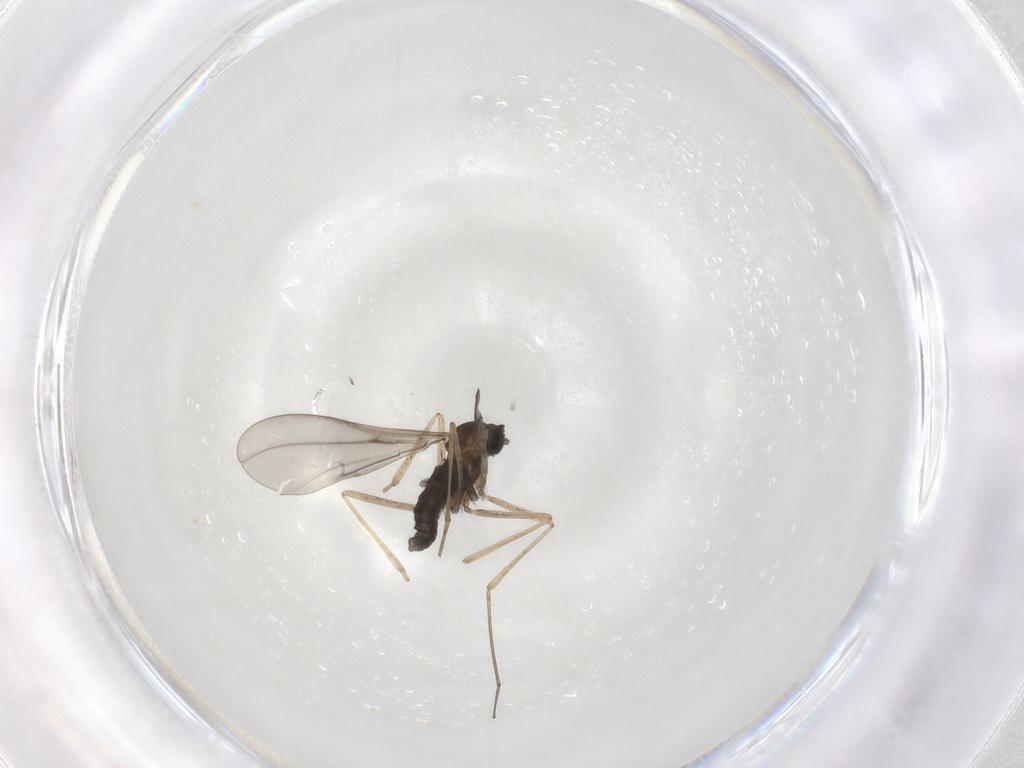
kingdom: Animalia
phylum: Arthropoda
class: Insecta
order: Diptera
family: Cecidomyiidae
